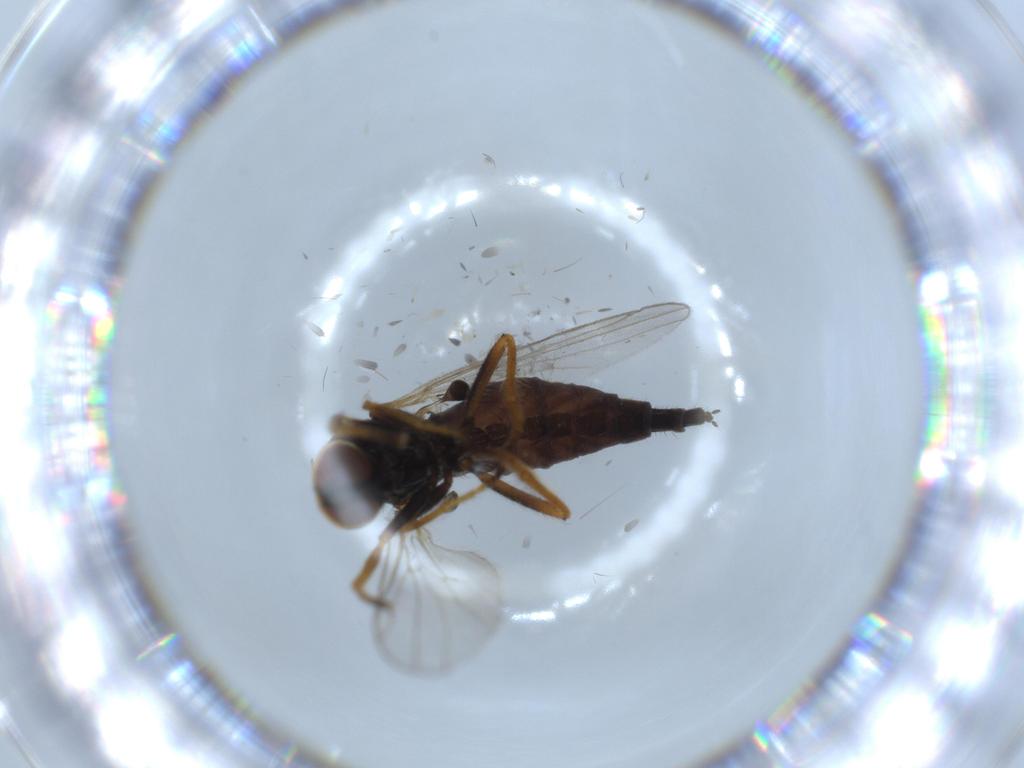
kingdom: Animalia
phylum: Arthropoda
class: Insecta
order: Diptera
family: Cecidomyiidae
